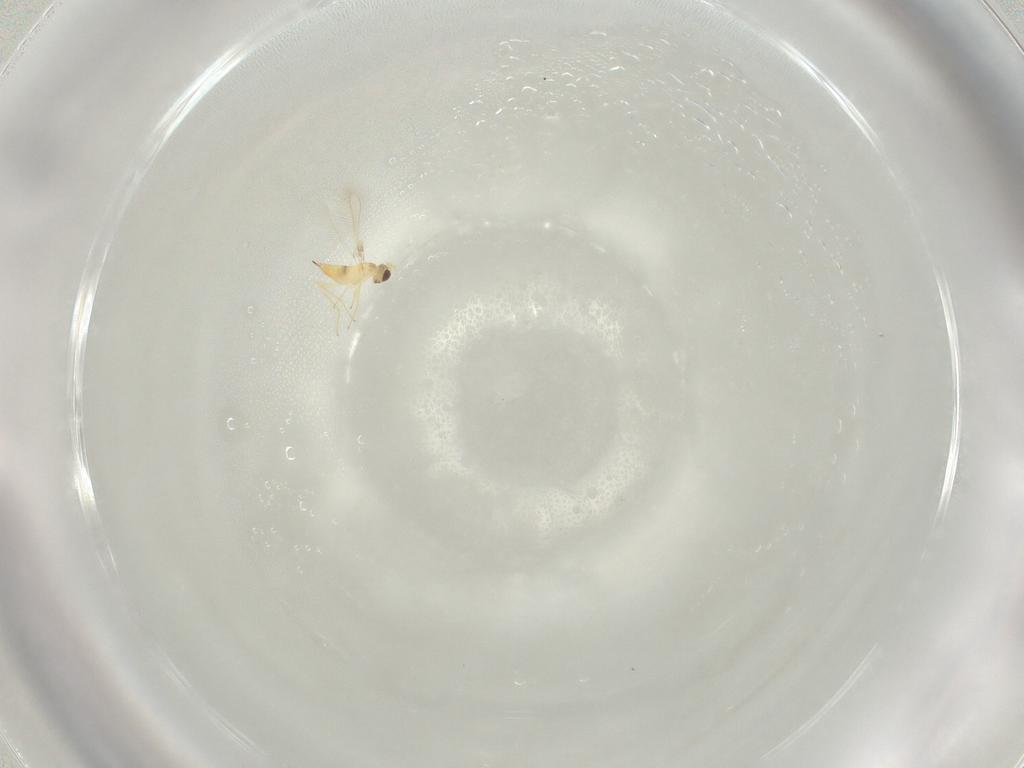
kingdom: Animalia
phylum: Arthropoda
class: Insecta
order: Hymenoptera
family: Mymaridae
